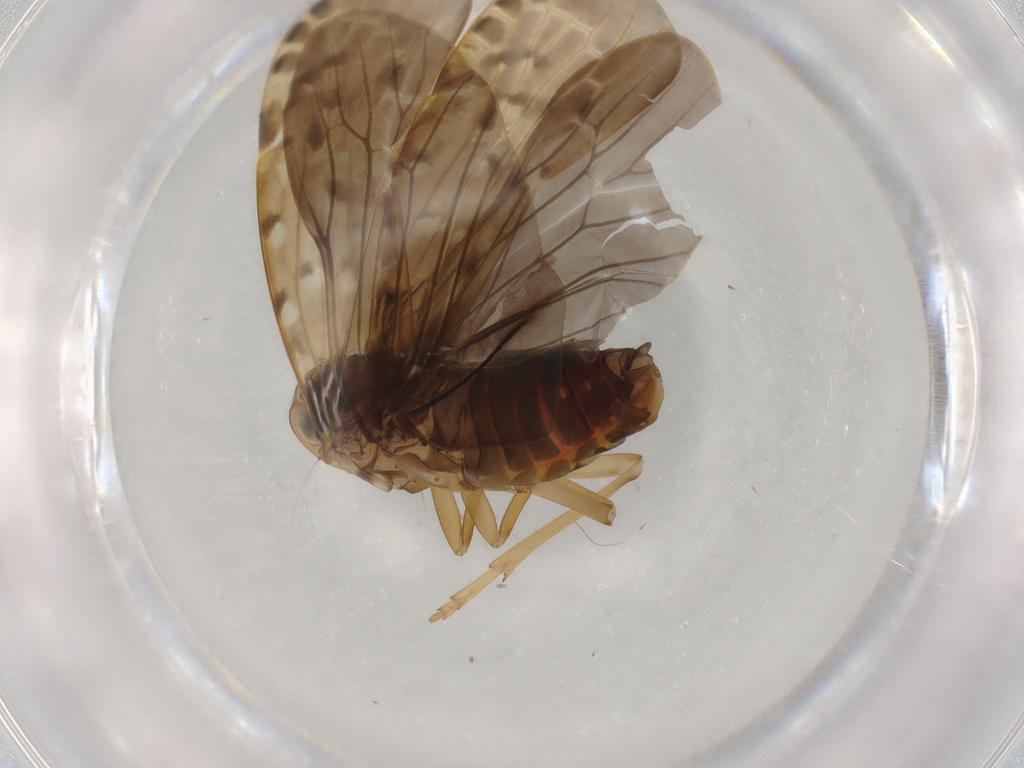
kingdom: Animalia
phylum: Arthropoda
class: Insecta
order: Hemiptera
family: Achilidae
